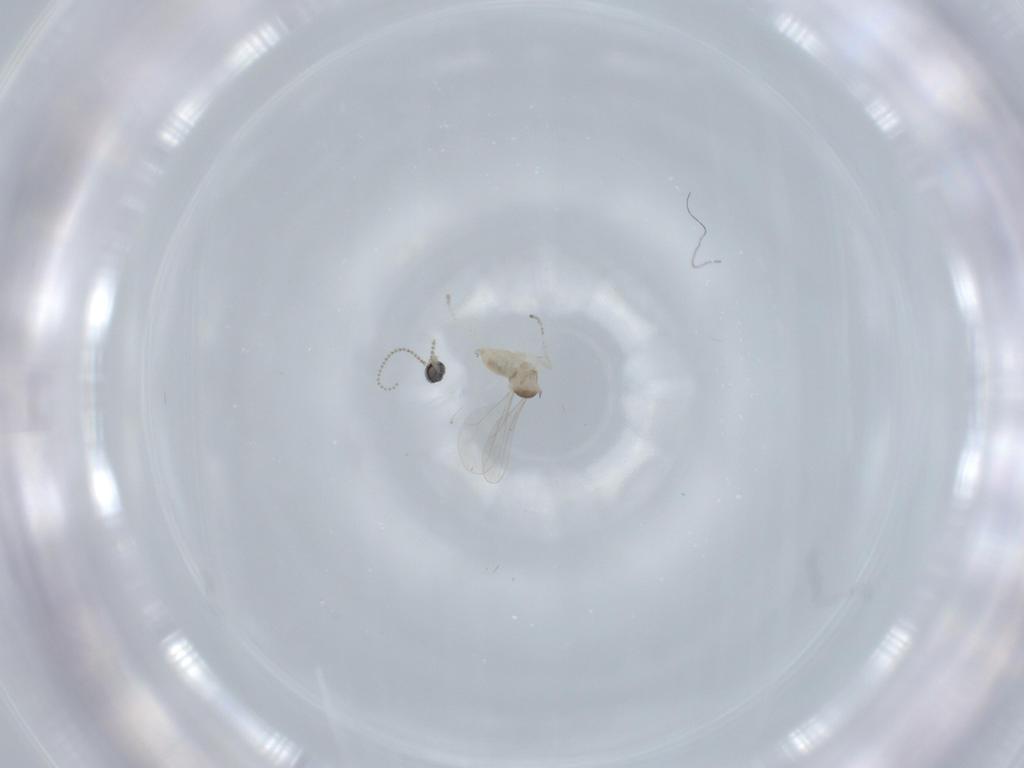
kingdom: Animalia
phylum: Arthropoda
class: Insecta
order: Diptera
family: Cecidomyiidae
